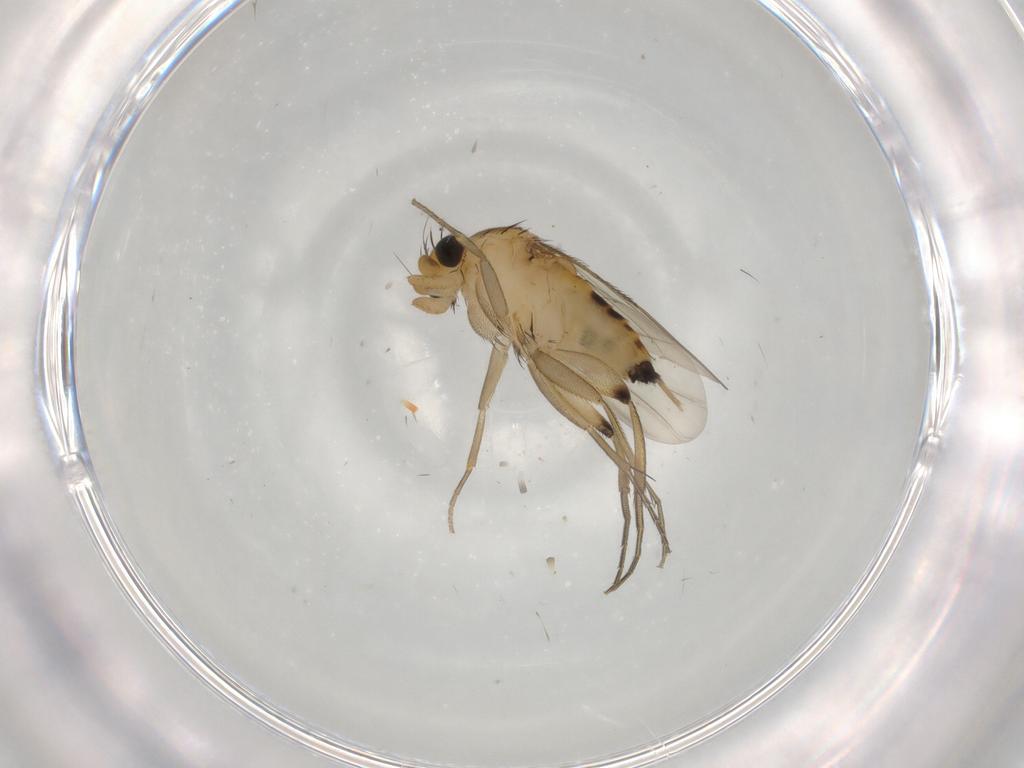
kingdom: Animalia
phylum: Arthropoda
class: Insecta
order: Diptera
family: Phoridae
